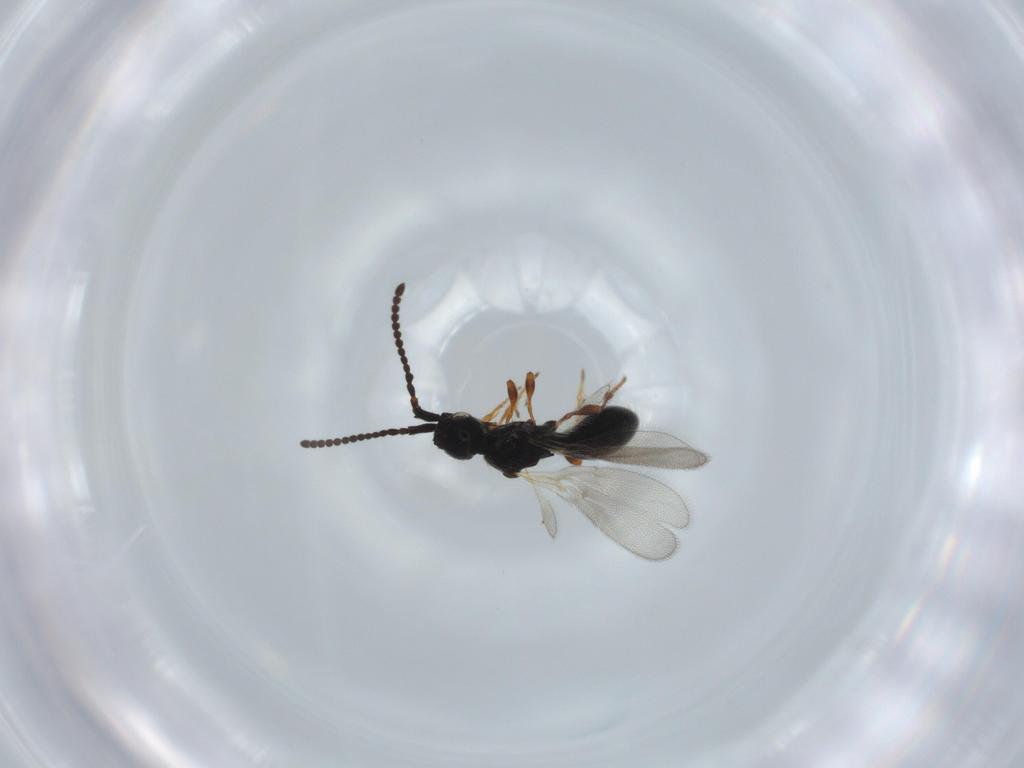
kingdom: Animalia
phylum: Arthropoda
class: Insecta
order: Hymenoptera
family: Diapriidae
